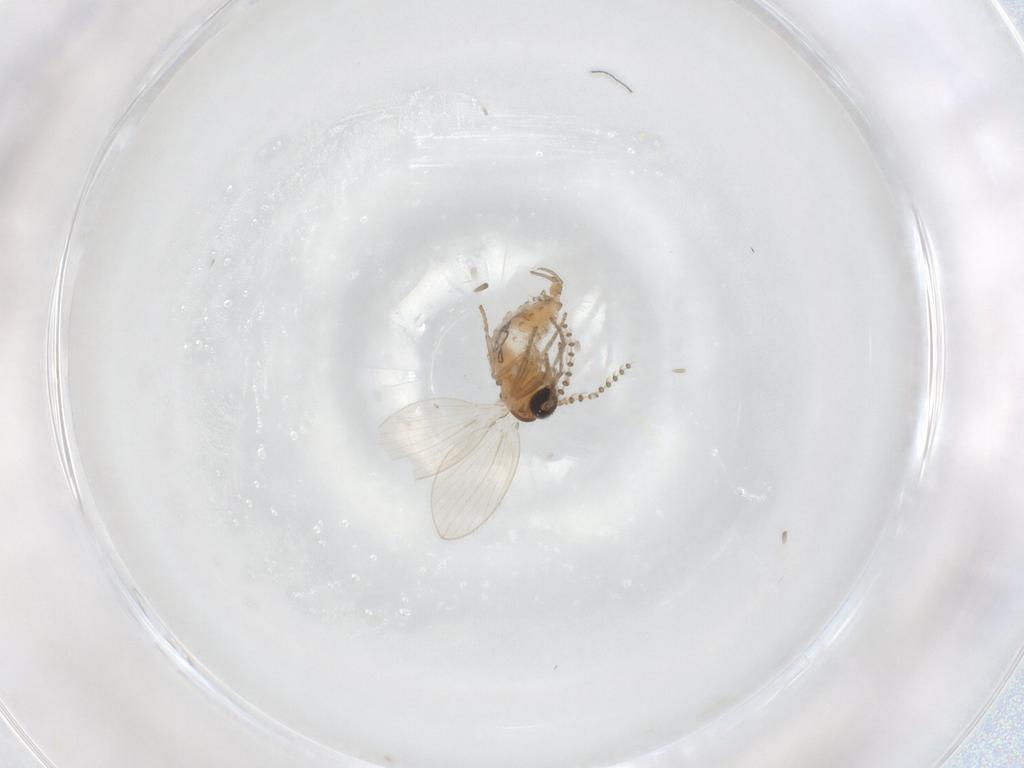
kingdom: Animalia
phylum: Arthropoda
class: Insecta
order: Diptera
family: Psychodidae
